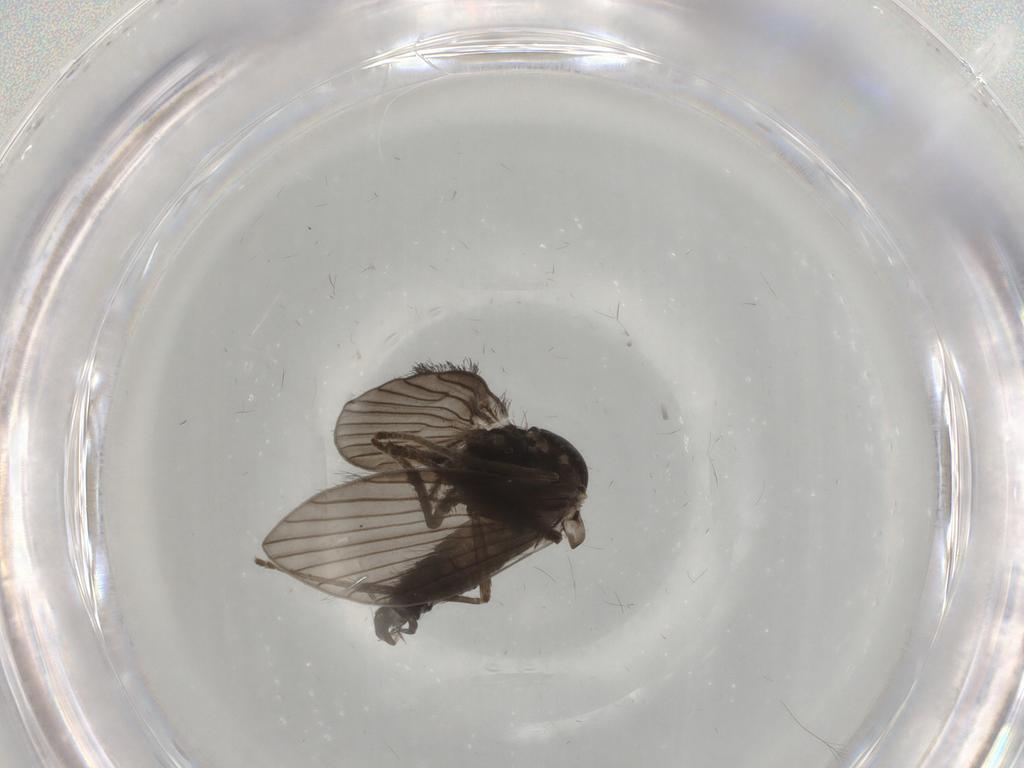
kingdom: Animalia
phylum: Arthropoda
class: Insecta
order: Diptera
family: Phoridae
